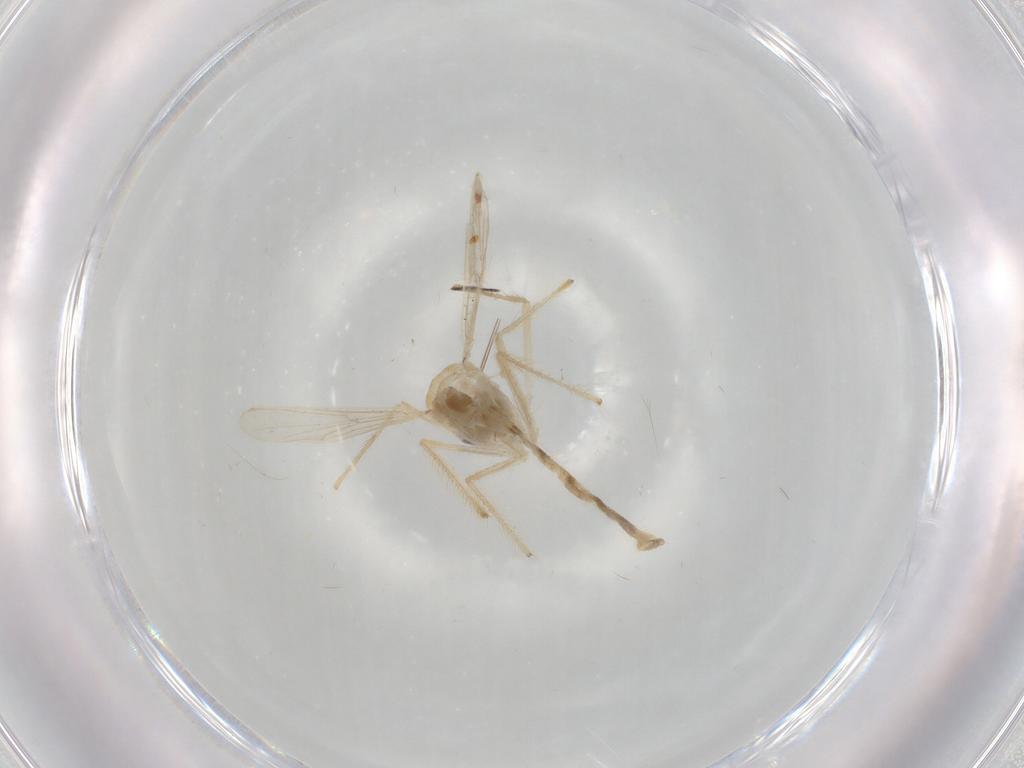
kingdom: Animalia
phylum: Arthropoda
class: Insecta
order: Diptera
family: Chironomidae
